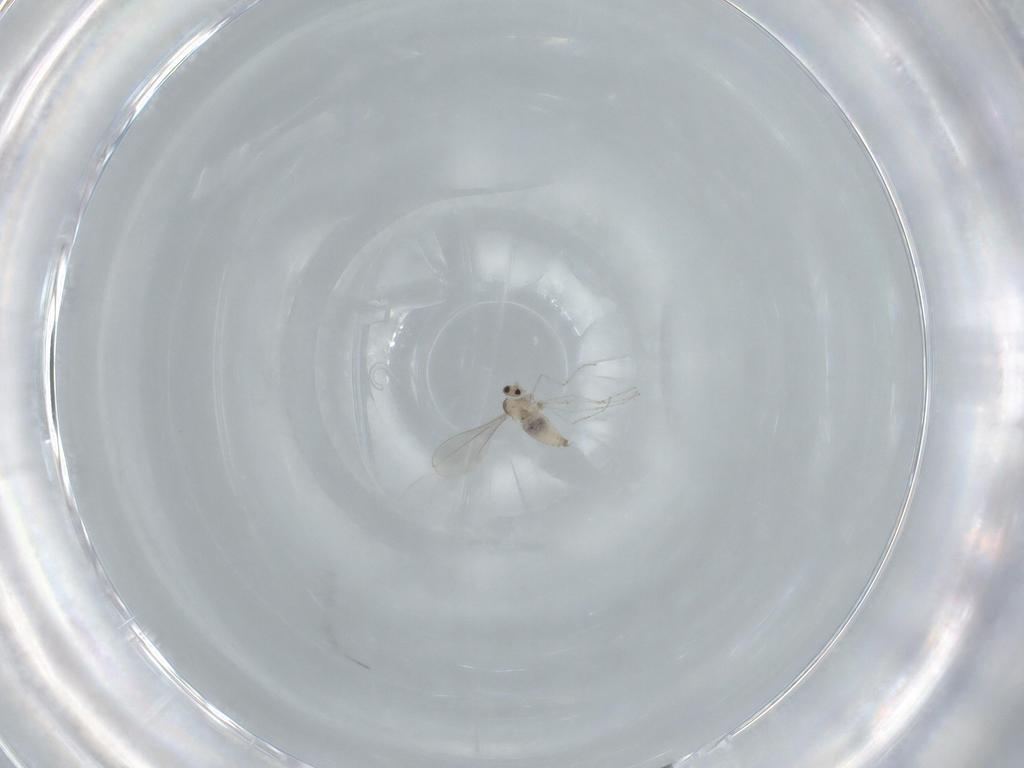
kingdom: Animalia
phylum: Arthropoda
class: Insecta
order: Diptera
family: Cecidomyiidae
